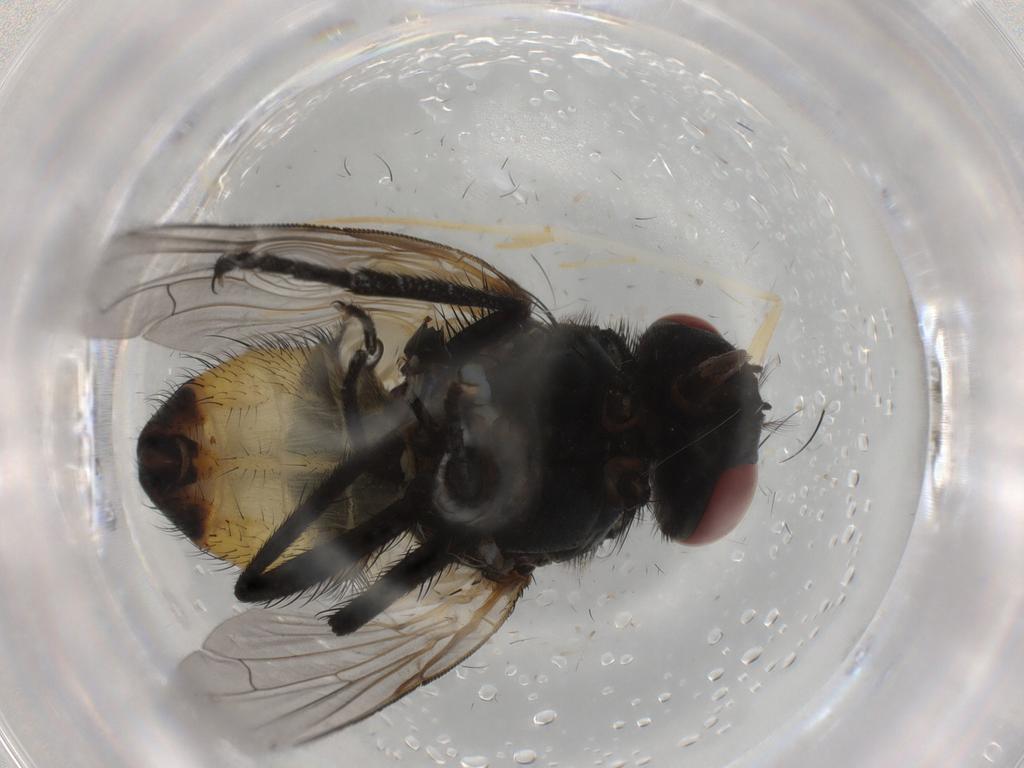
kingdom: Animalia
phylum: Arthropoda
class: Insecta
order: Diptera
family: Muscidae
